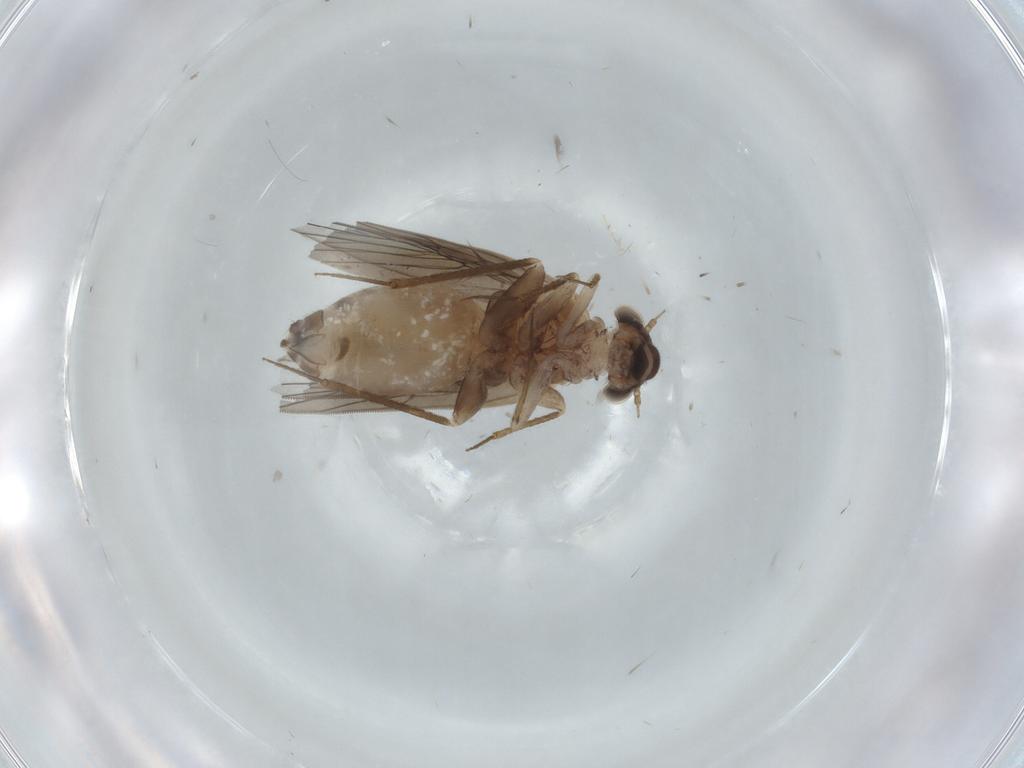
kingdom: Animalia
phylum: Arthropoda
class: Insecta
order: Psocodea
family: Lepidopsocidae
